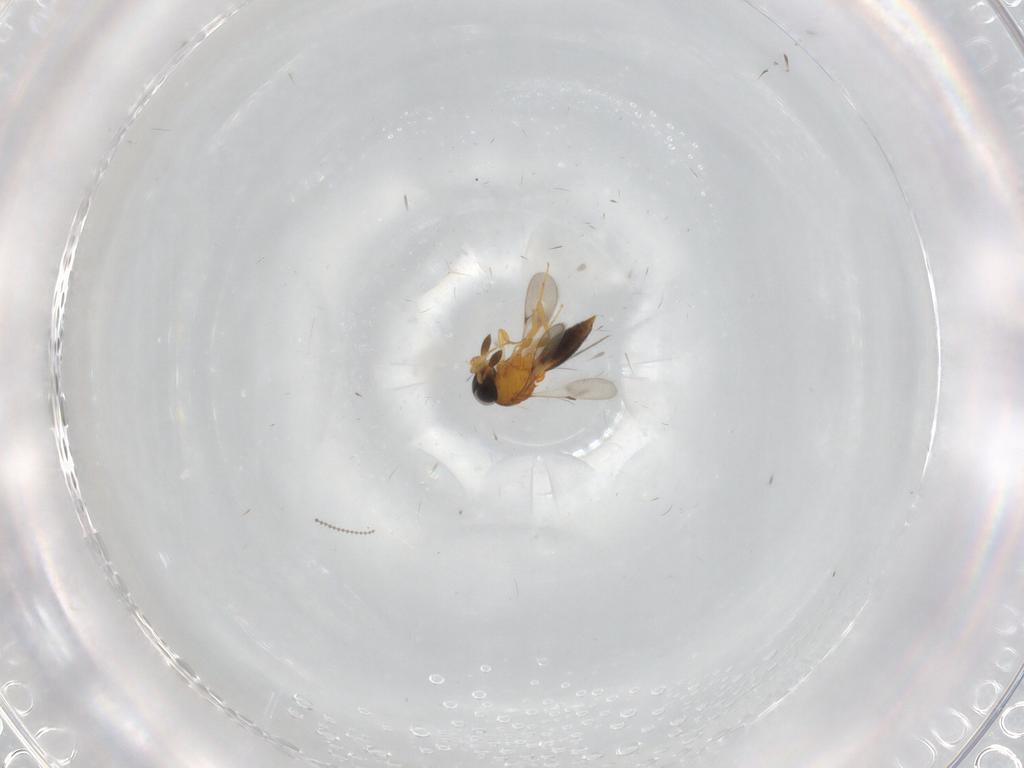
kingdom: Animalia
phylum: Arthropoda
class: Insecta
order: Hymenoptera
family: Scelionidae
